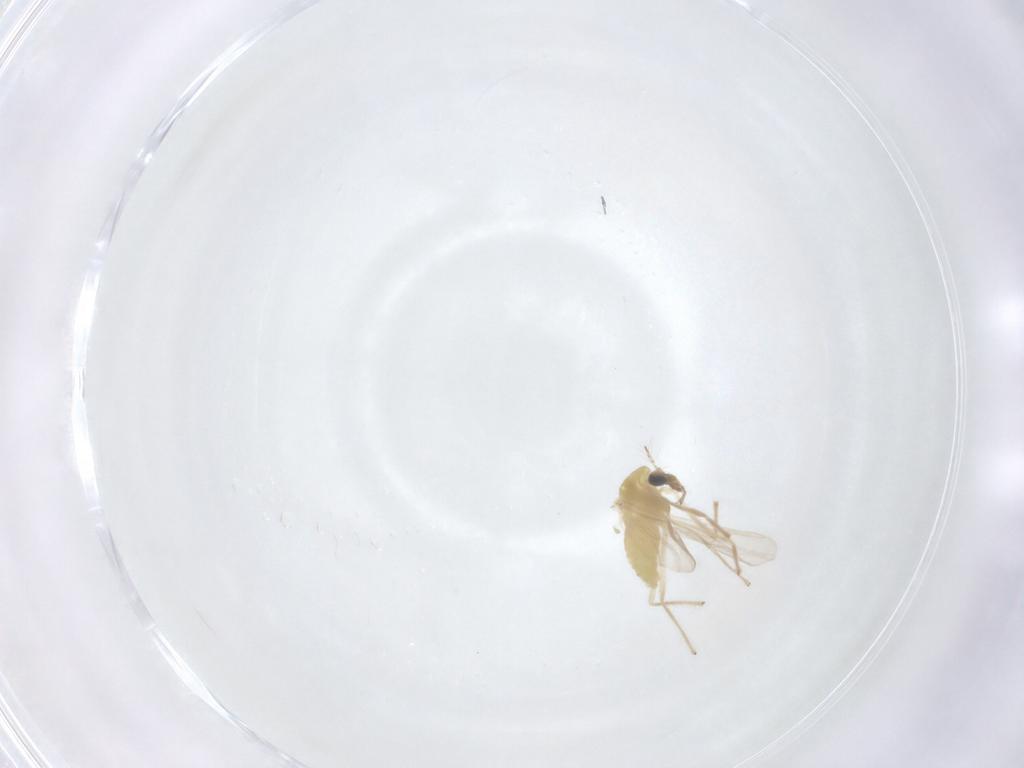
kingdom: Animalia
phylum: Arthropoda
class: Insecta
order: Diptera
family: Chironomidae
